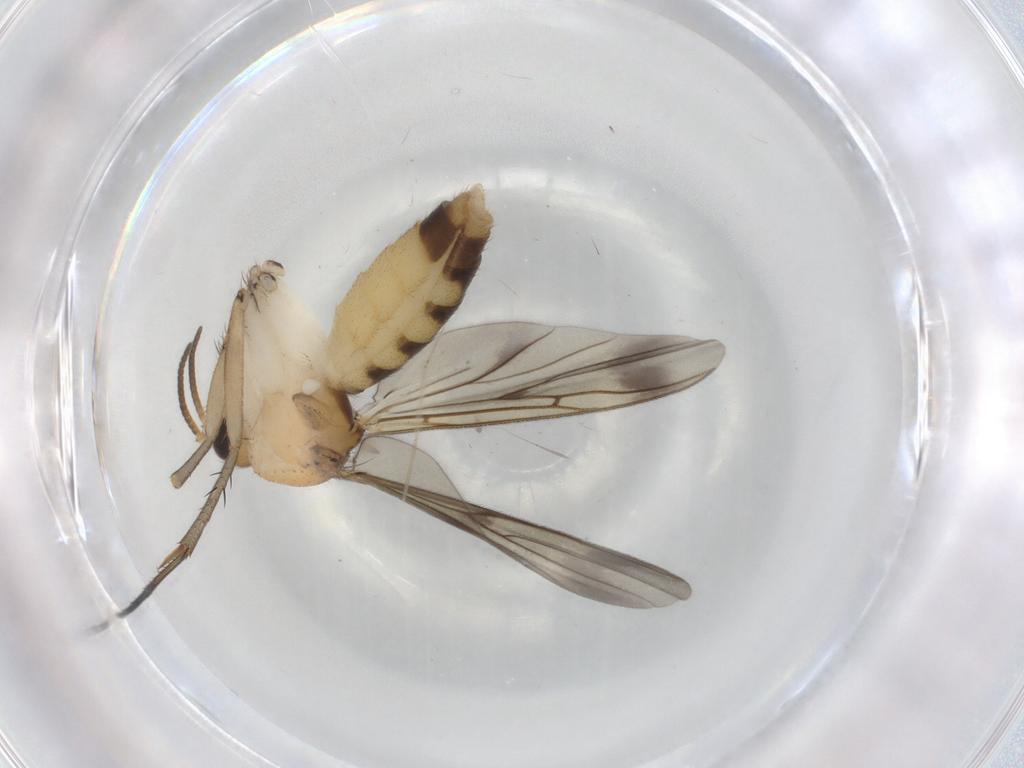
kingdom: Animalia
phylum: Arthropoda
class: Insecta
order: Diptera
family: Mycetophilidae
